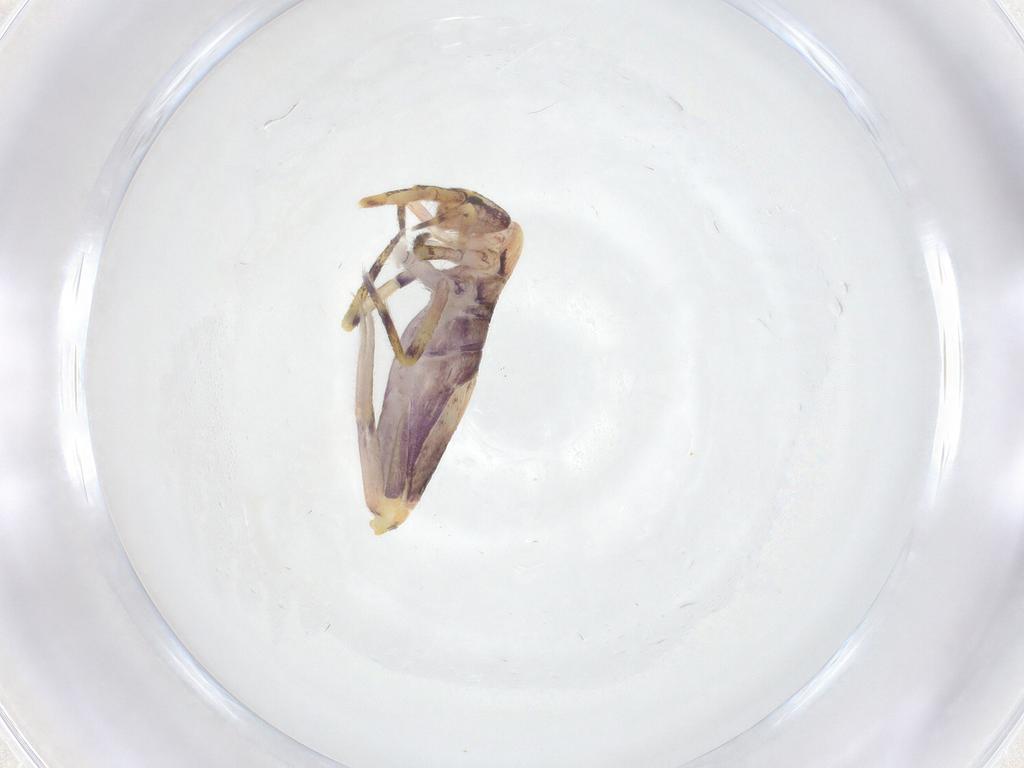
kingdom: Animalia
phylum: Arthropoda
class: Collembola
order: Entomobryomorpha
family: Entomobryidae
